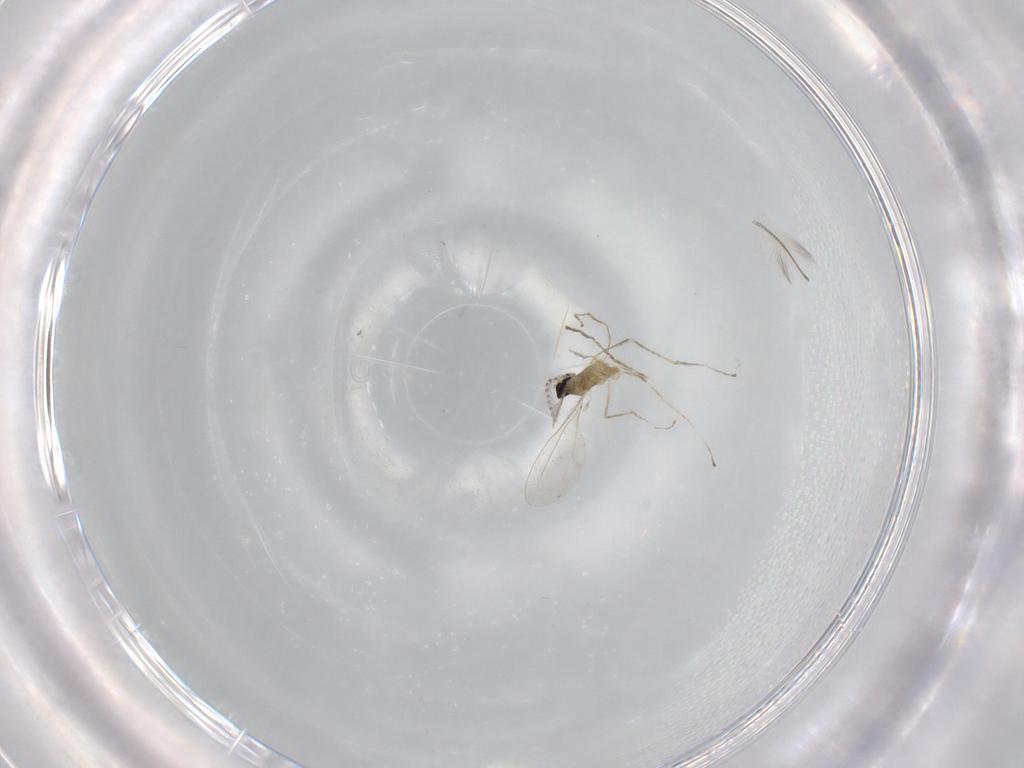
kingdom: Animalia
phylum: Arthropoda
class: Insecta
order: Diptera
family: Chironomidae
